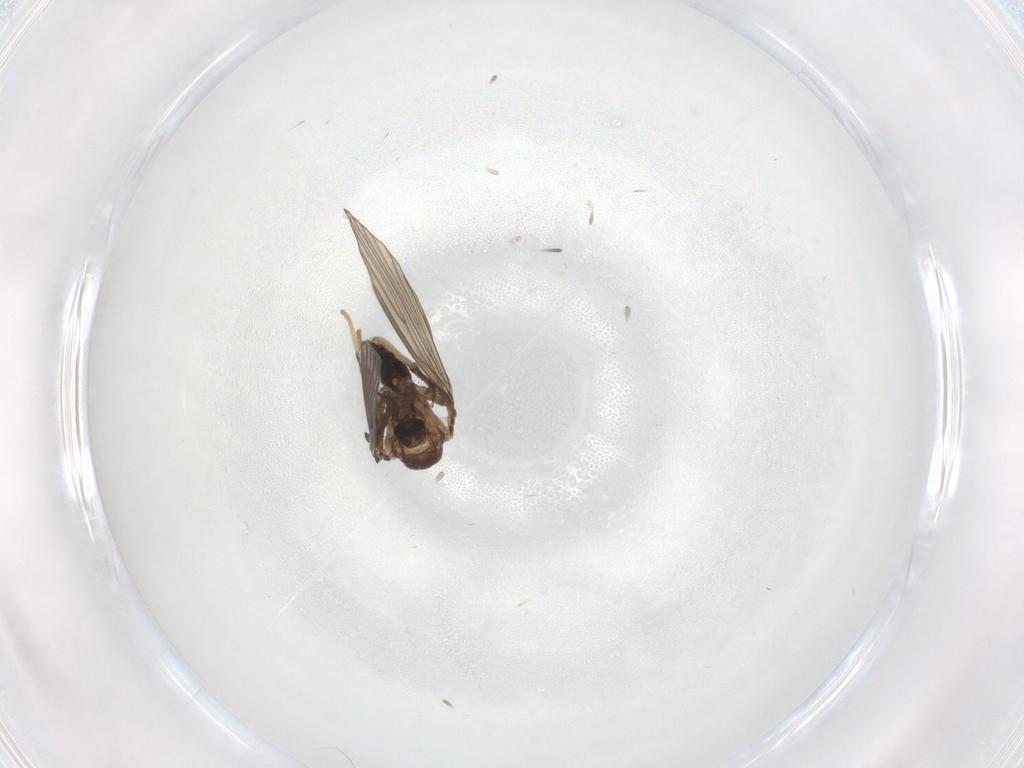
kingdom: Animalia
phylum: Arthropoda
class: Insecta
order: Diptera
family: Psychodidae
